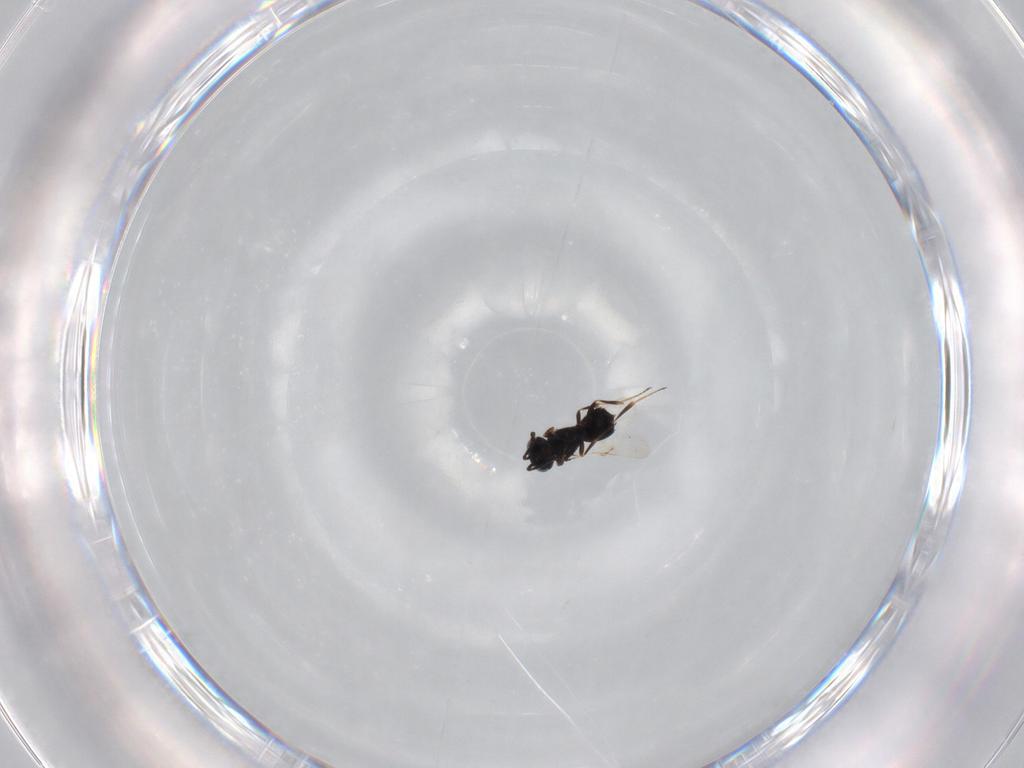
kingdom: Animalia
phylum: Arthropoda
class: Insecta
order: Hymenoptera
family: Scelionidae
